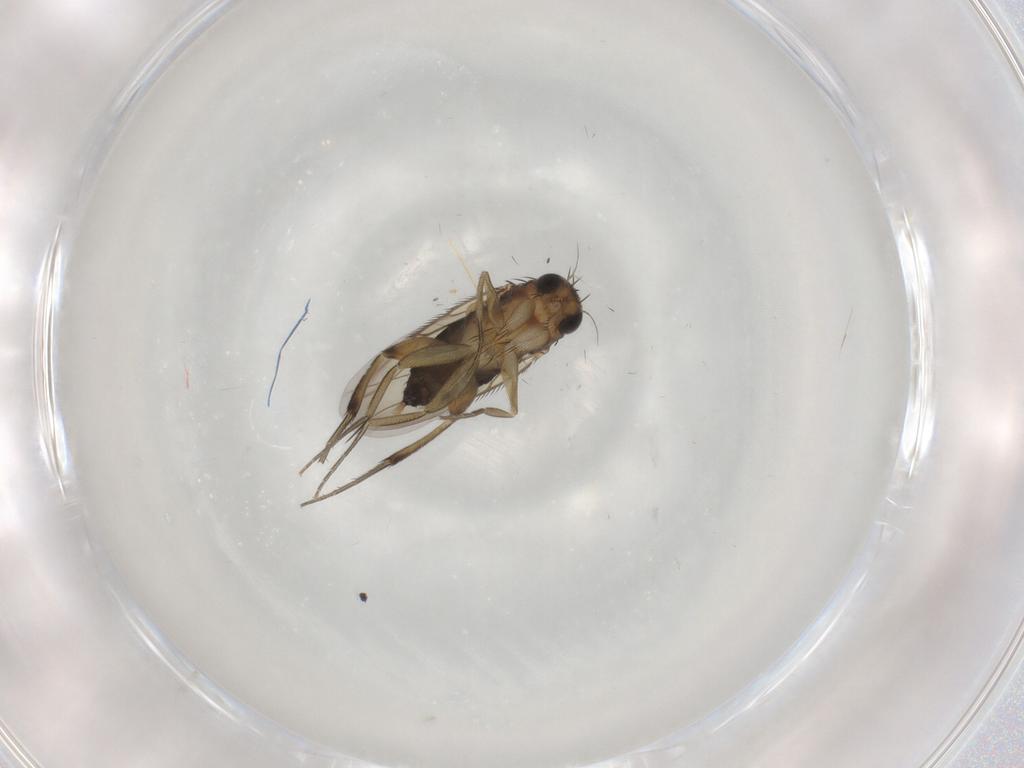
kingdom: Animalia
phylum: Arthropoda
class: Insecta
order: Diptera
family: Cecidomyiidae
